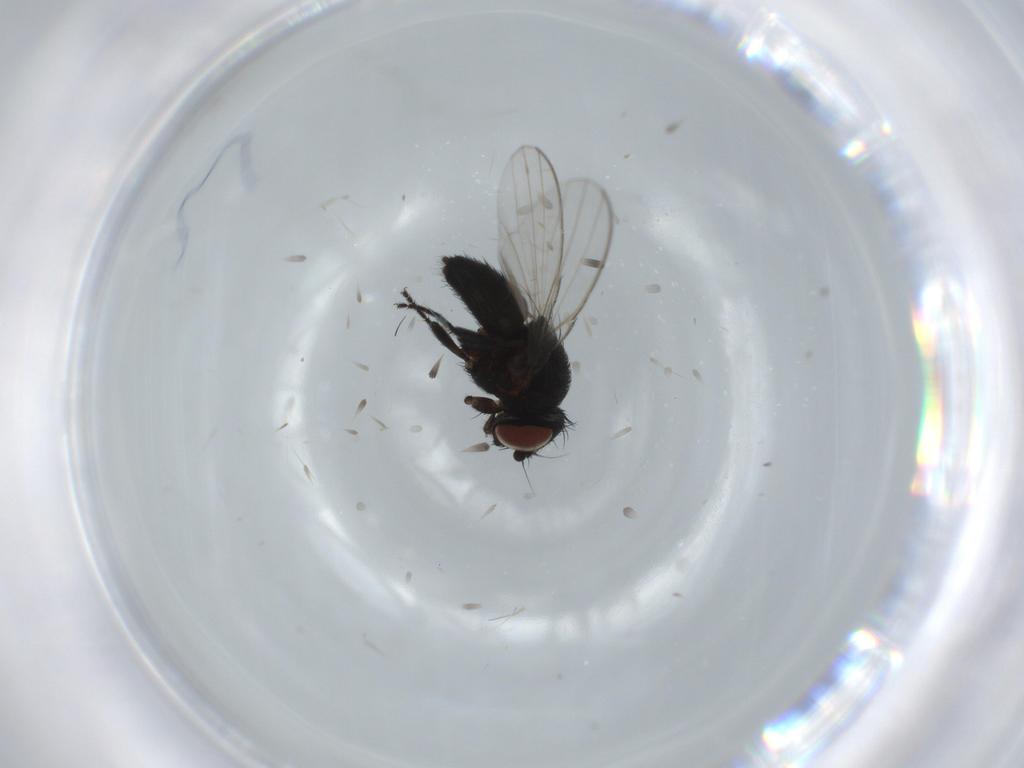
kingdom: Animalia
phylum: Arthropoda
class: Insecta
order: Diptera
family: Milichiidae
